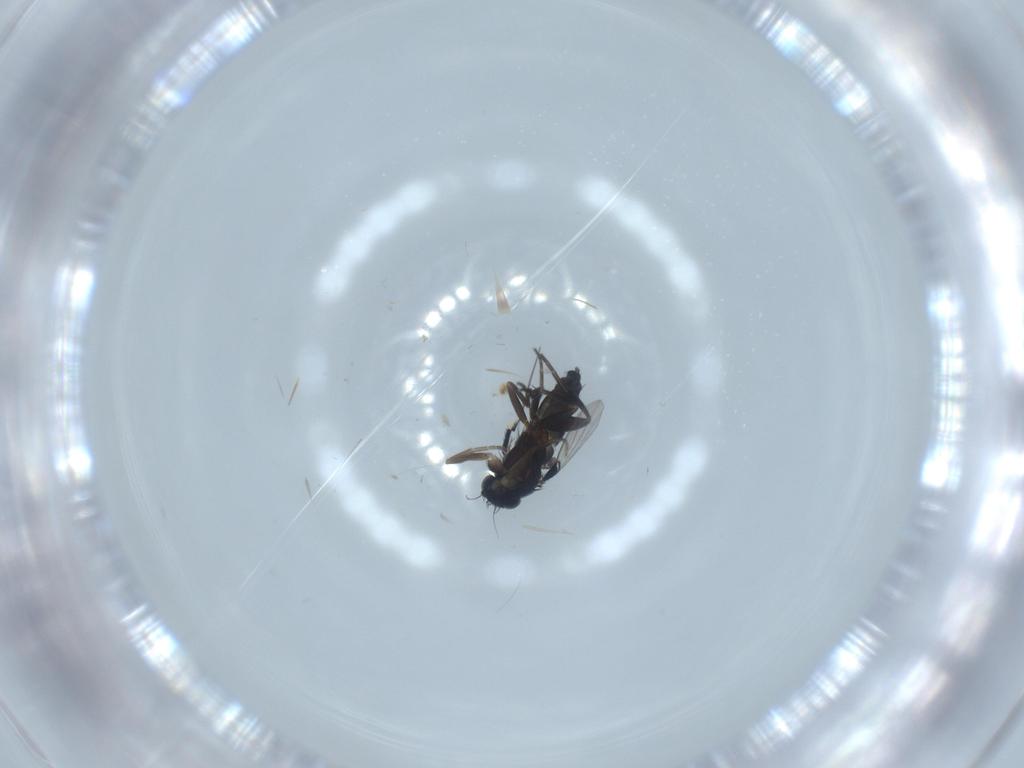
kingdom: Animalia
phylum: Arthropoda
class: Insecta
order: Diptera
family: Phoridae
